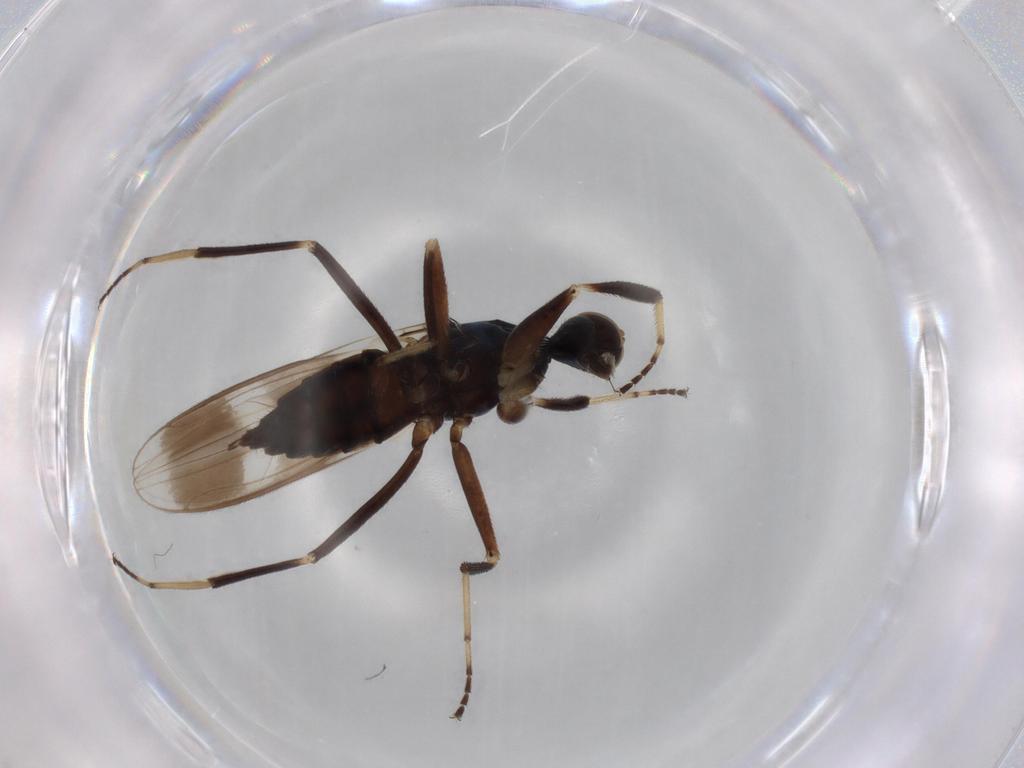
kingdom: Animalia
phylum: Arthropoda
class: Insecta
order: Diptera
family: Hybotidae
